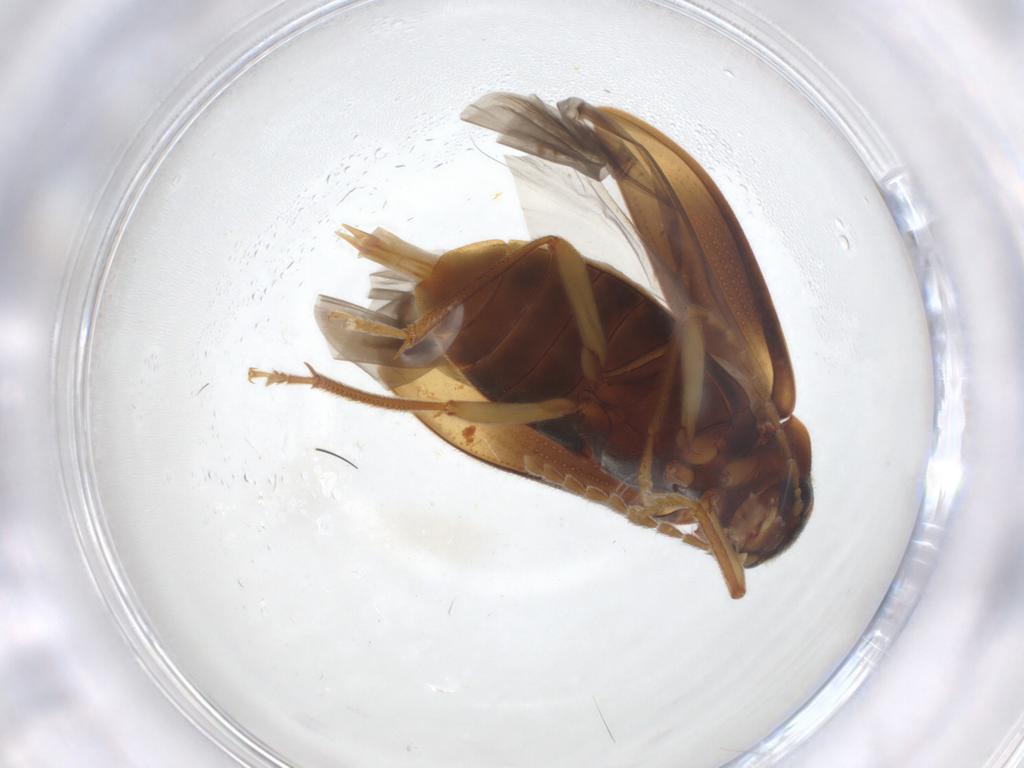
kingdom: Animalia
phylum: Arthropoda
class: Insecta
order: Coleoptera
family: Ptilodactylidae
